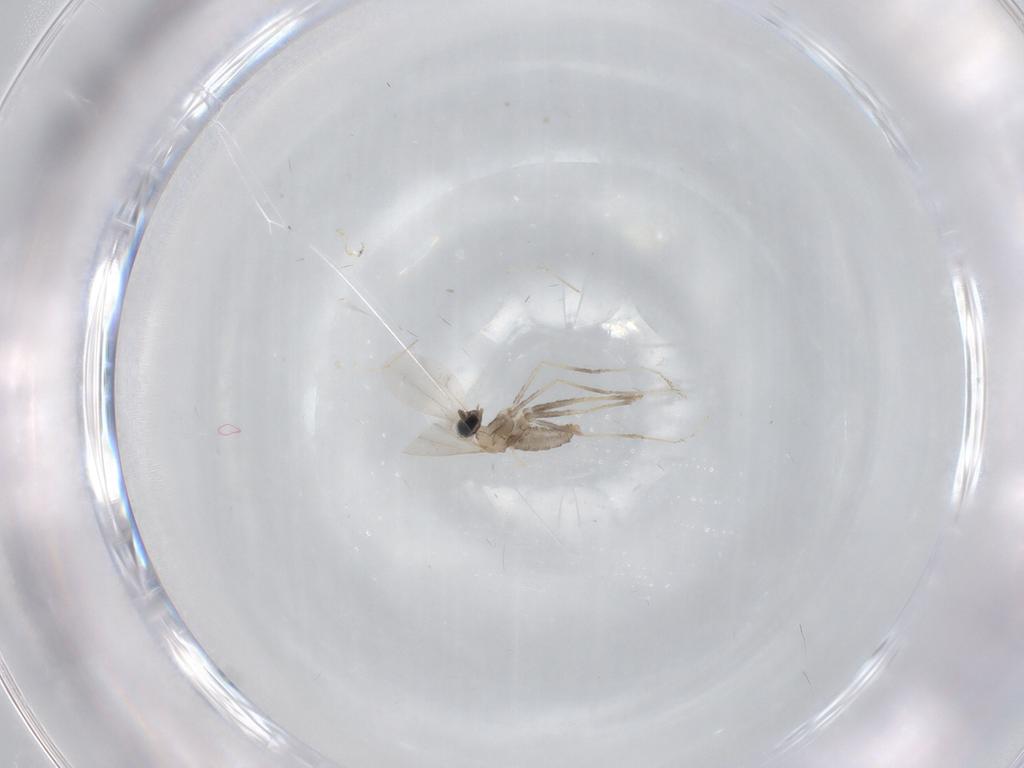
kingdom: Animalia
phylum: Arthropoda
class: Insecta
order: Diptera
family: Cecidomyiidae
